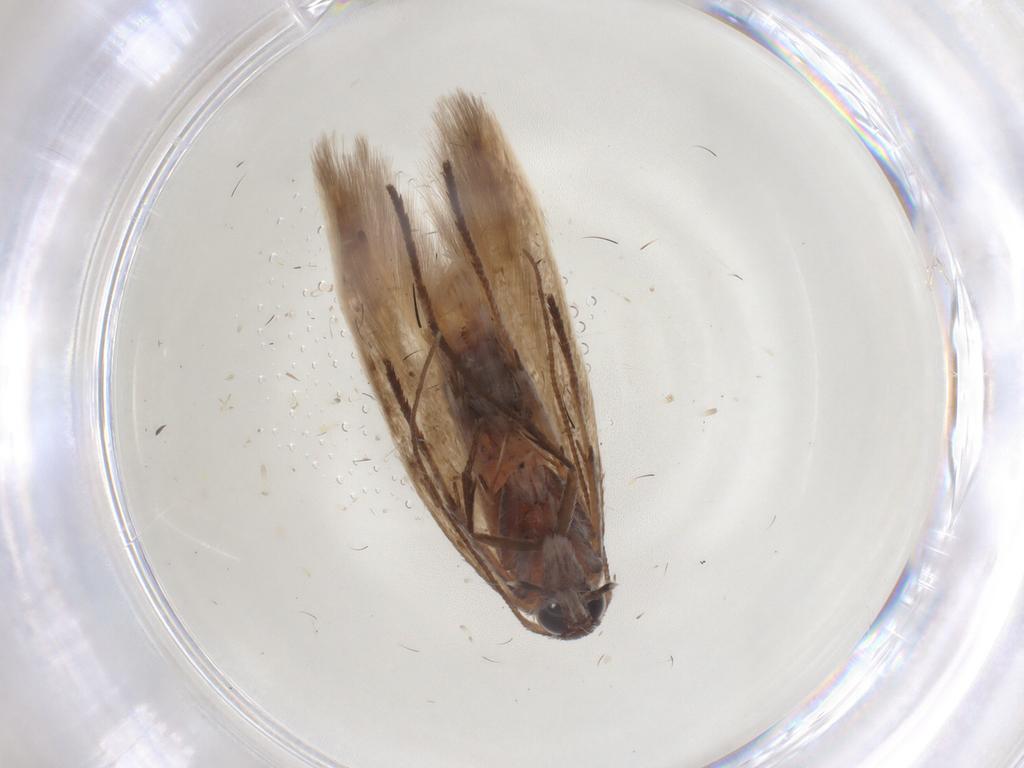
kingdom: Animalia
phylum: Arthropoda
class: Insecta
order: Lepidoptera
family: Scythrididae
